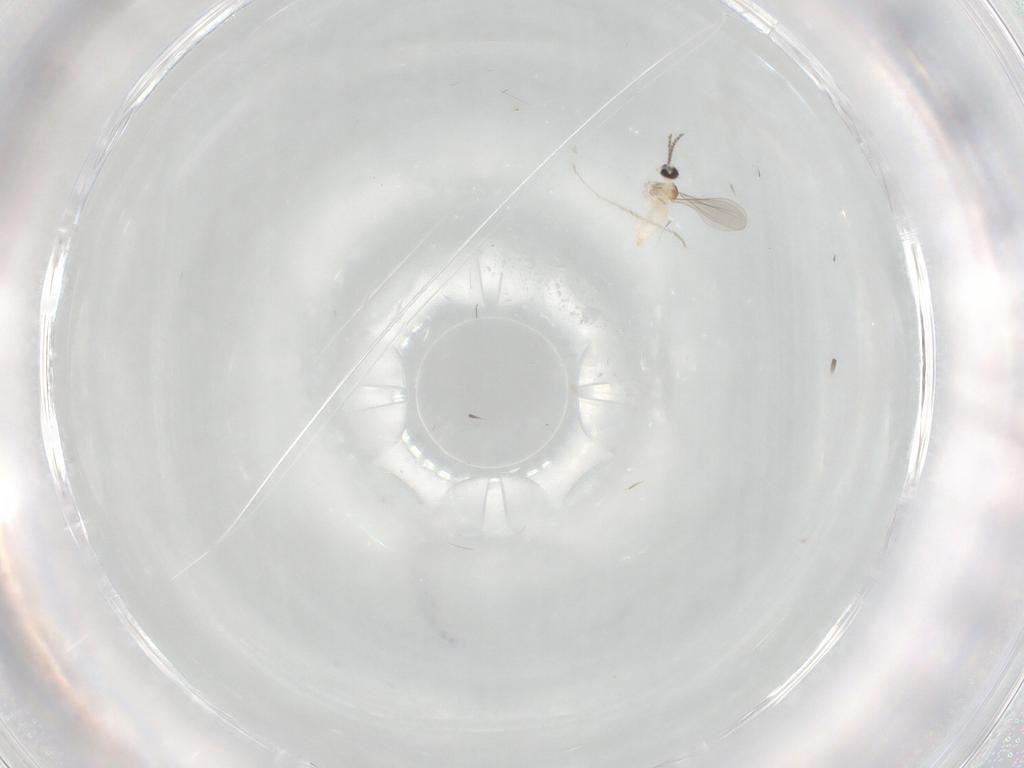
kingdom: Animalia
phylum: Arthropoda
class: Insecta
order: Diptera
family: Cecidomyiidae
